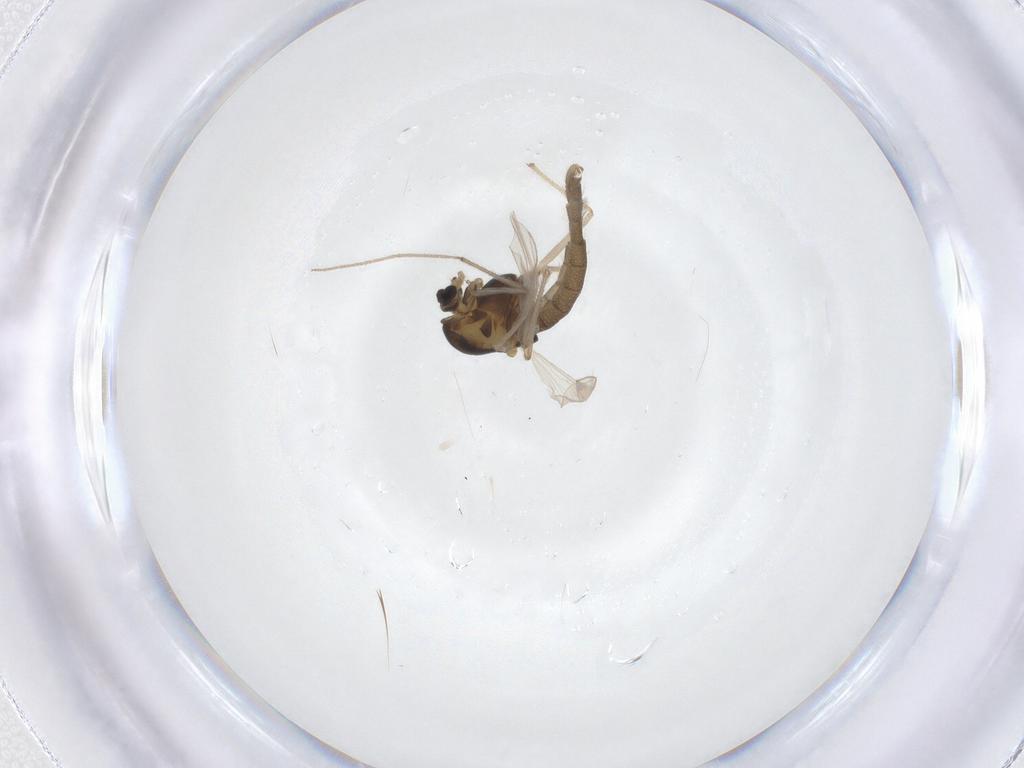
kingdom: Animalia
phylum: Arthropoda
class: Insecta
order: Diptera
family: Chironomidae
